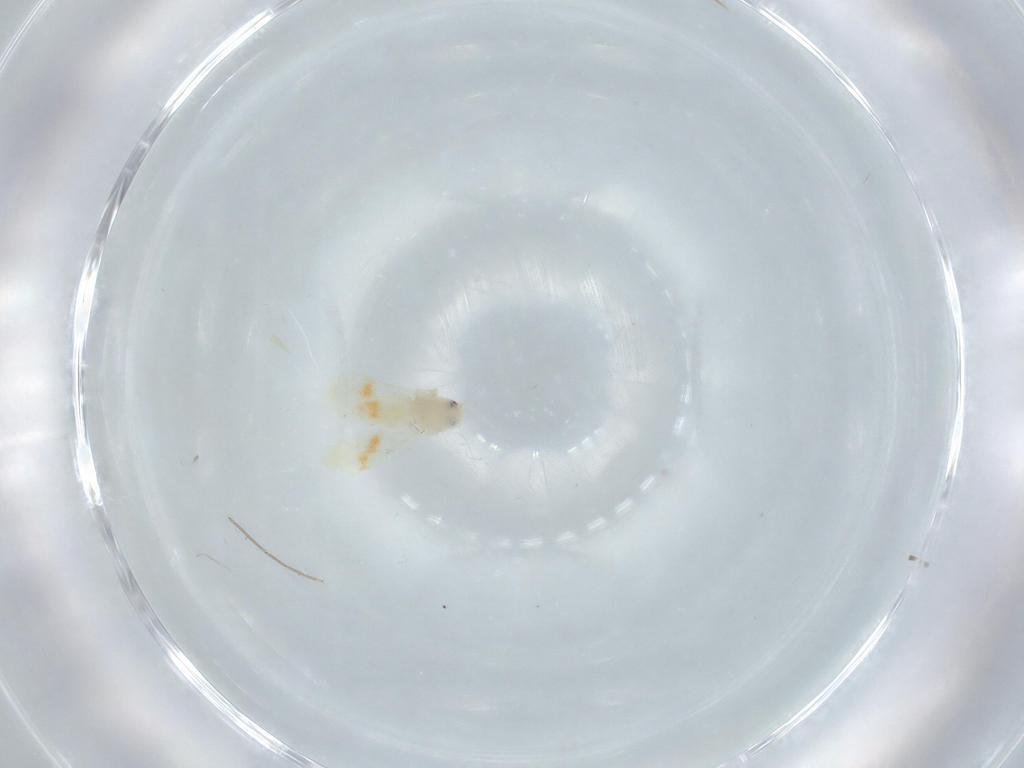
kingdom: Animalia
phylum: Arthropoda
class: Insecta
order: Hemiptera
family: Aleyrodidae
